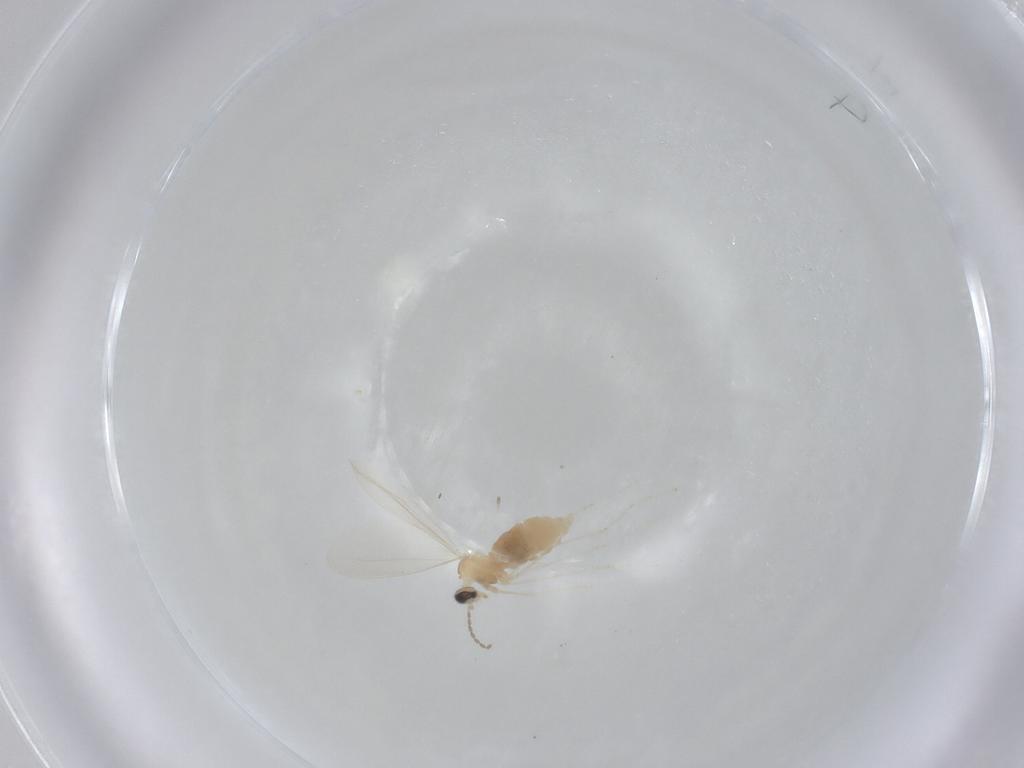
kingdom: Animalia
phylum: Arthropoda
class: Insecta
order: Diptera
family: Cecidomyiidae
